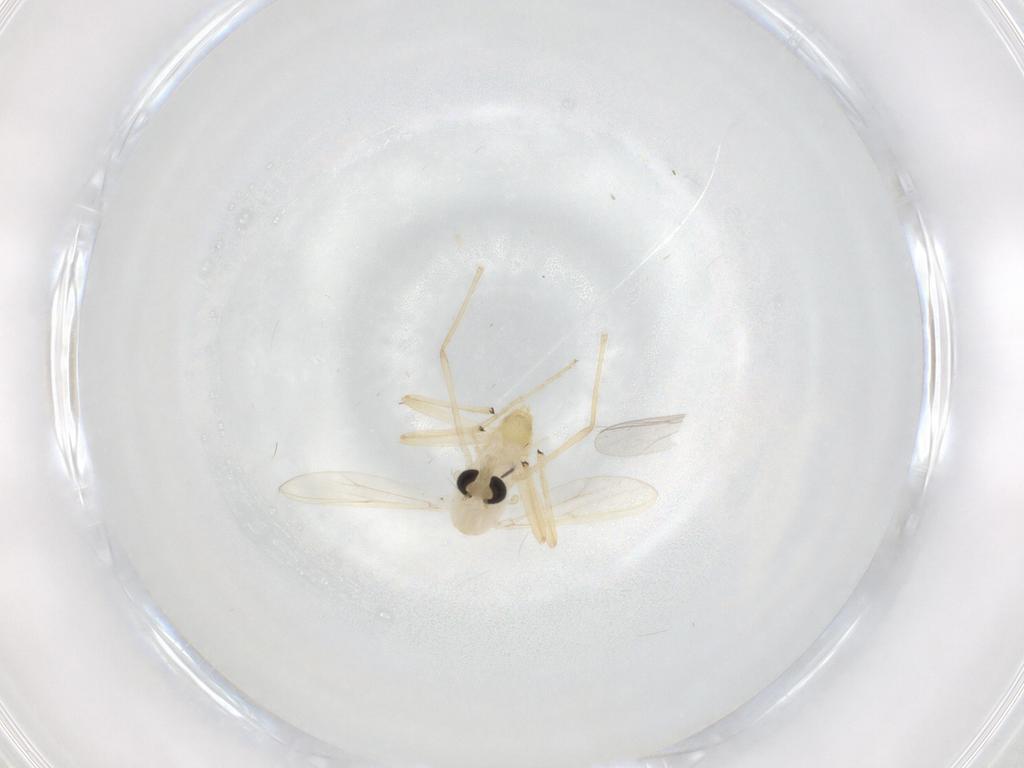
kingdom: Animalia
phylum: Arthropoda
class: Insecta
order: Diptera
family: Chironomidae
